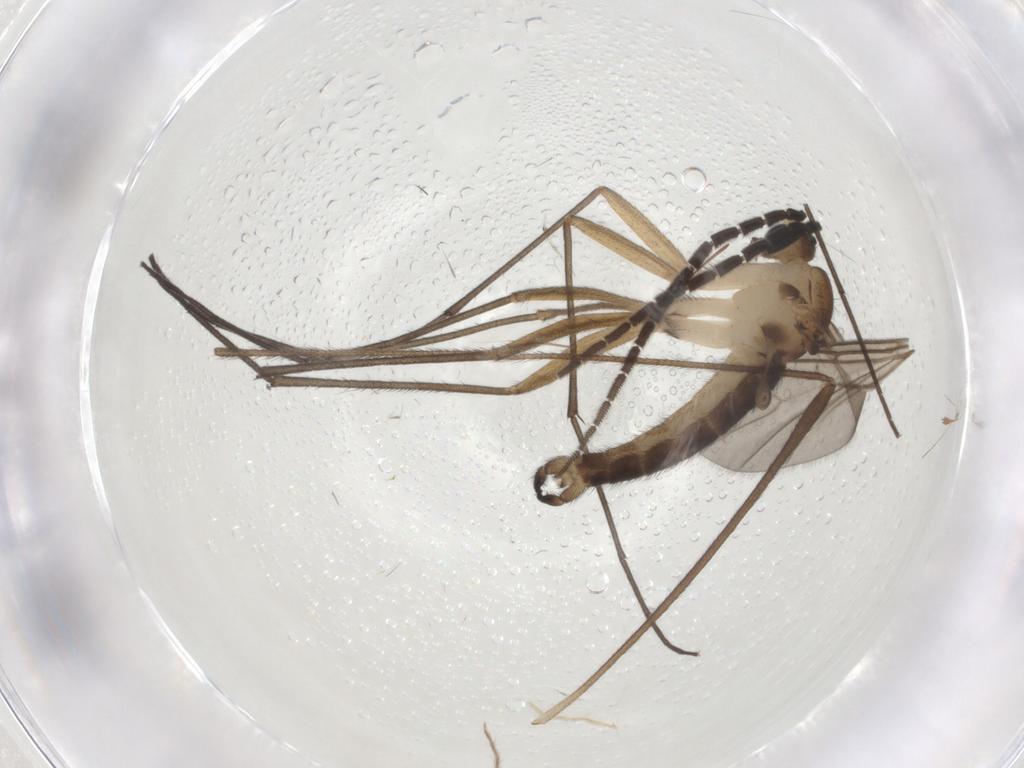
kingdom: Animalia
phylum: Arthropoda
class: Insecta
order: Diptera
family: Sciaridae
